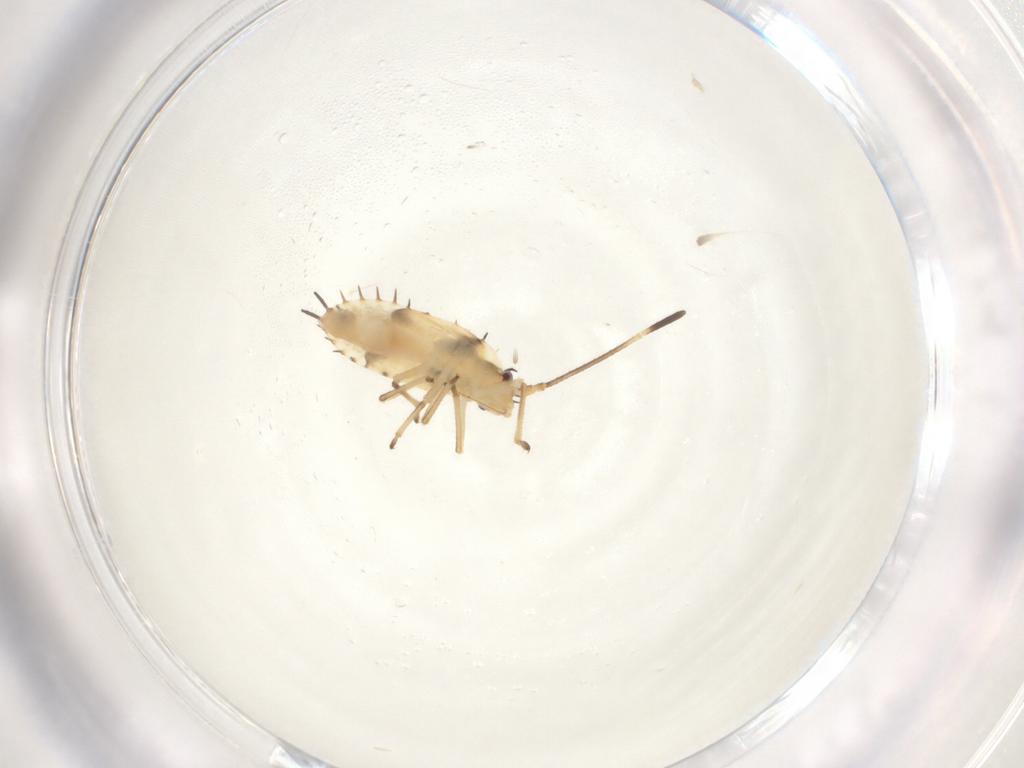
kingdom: Animalia
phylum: Arthropoda
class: Insecta
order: Hemiptera
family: Tingidae
